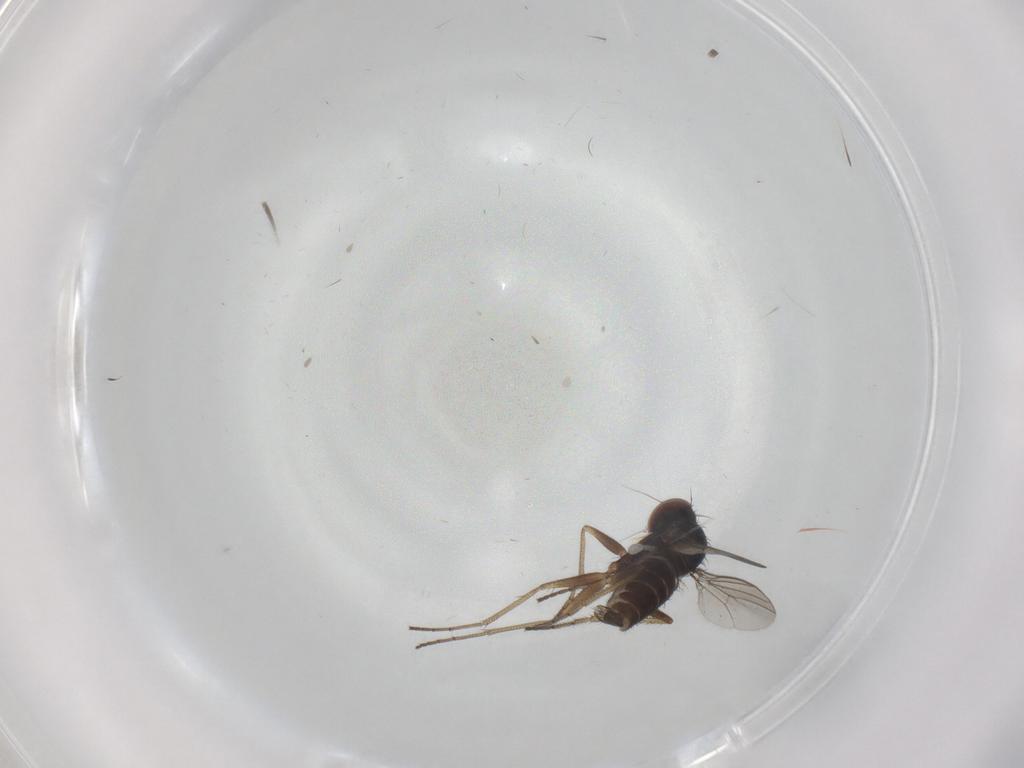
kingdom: Animalia
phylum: Arthropoda
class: Insecta
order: Diptera
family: Dolichopodidae
